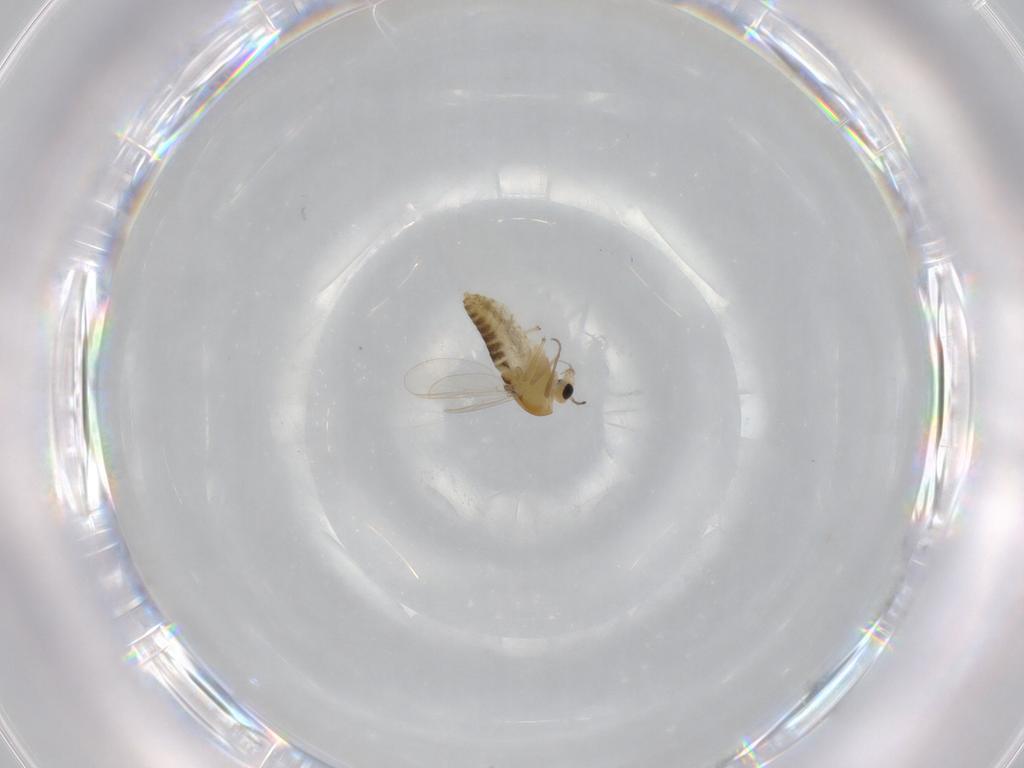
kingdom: Animalia
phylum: Arthropoda
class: Insecta
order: Diptera
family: Chironomidae
